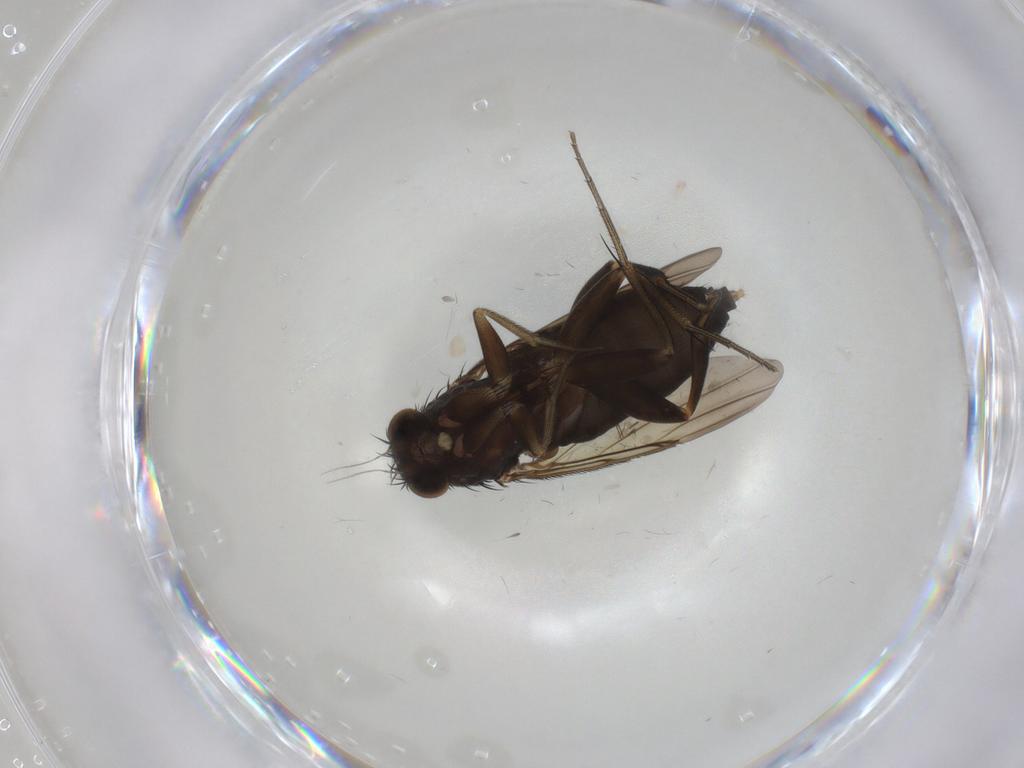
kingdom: Animalia
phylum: Arthropoda
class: Insecta
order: Diptera
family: Phoridae
